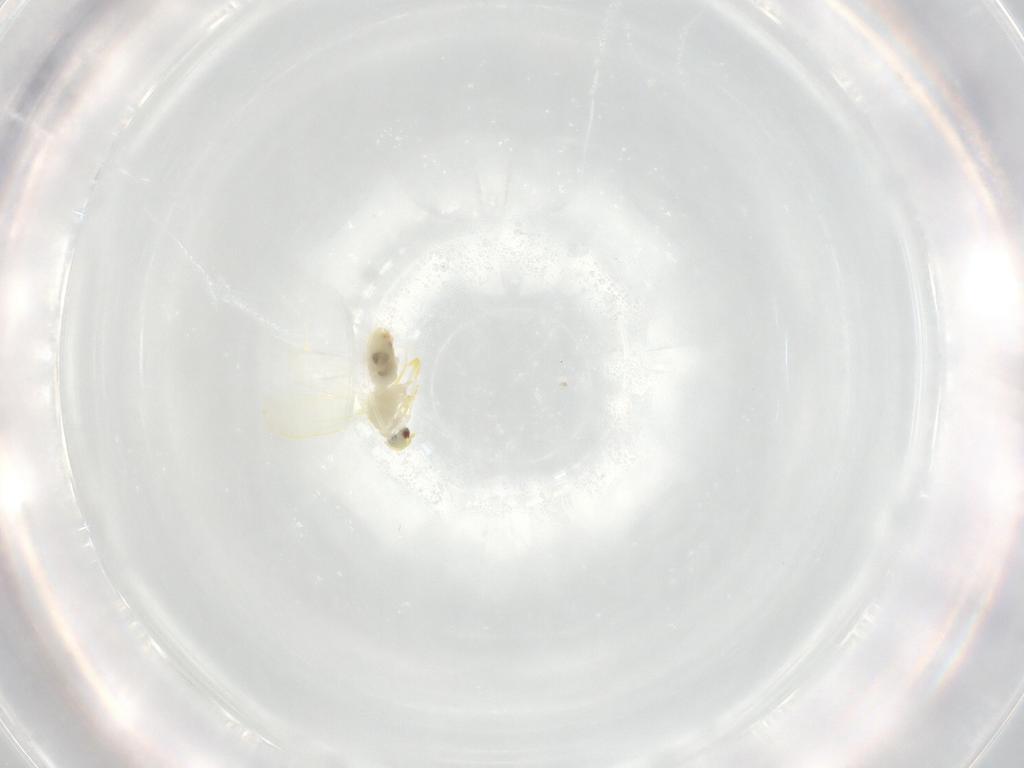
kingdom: Animalia
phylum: Arthropoda
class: Insecta
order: Hemiptera
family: Aleyrodidae
